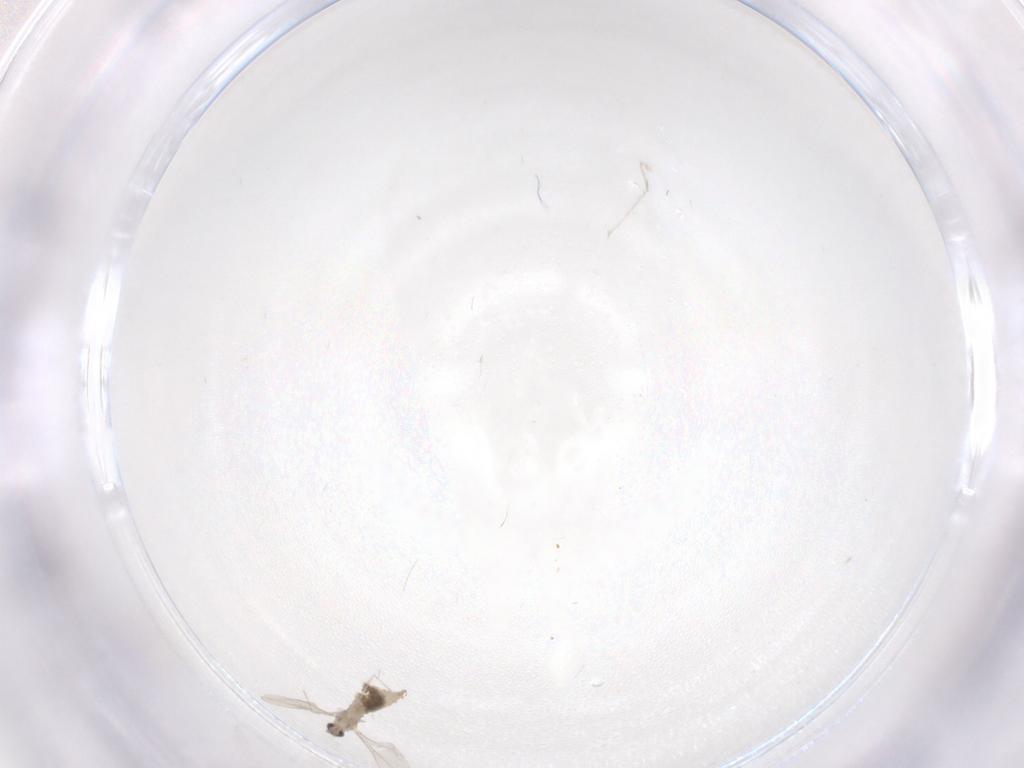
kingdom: Animalia
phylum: Arthropoda
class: Insecta
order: Diptera
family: Cecidomyiidae
